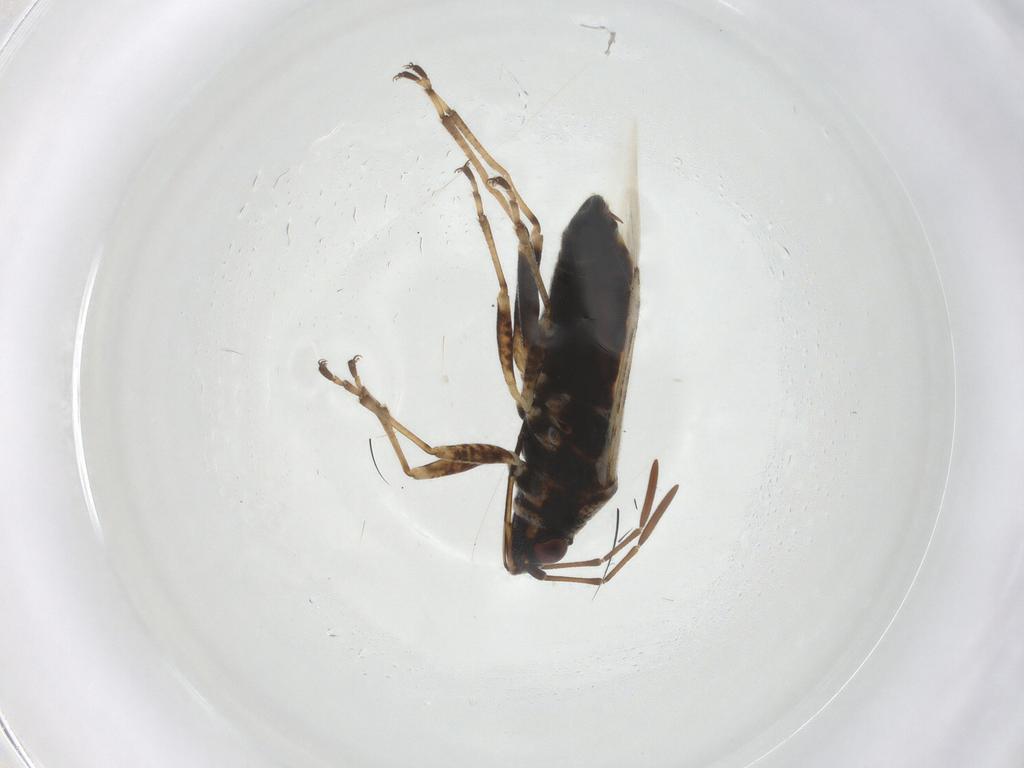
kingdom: Animalia
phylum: Arthropoda
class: Insecta
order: Hemiptera
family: Lygaeidae
